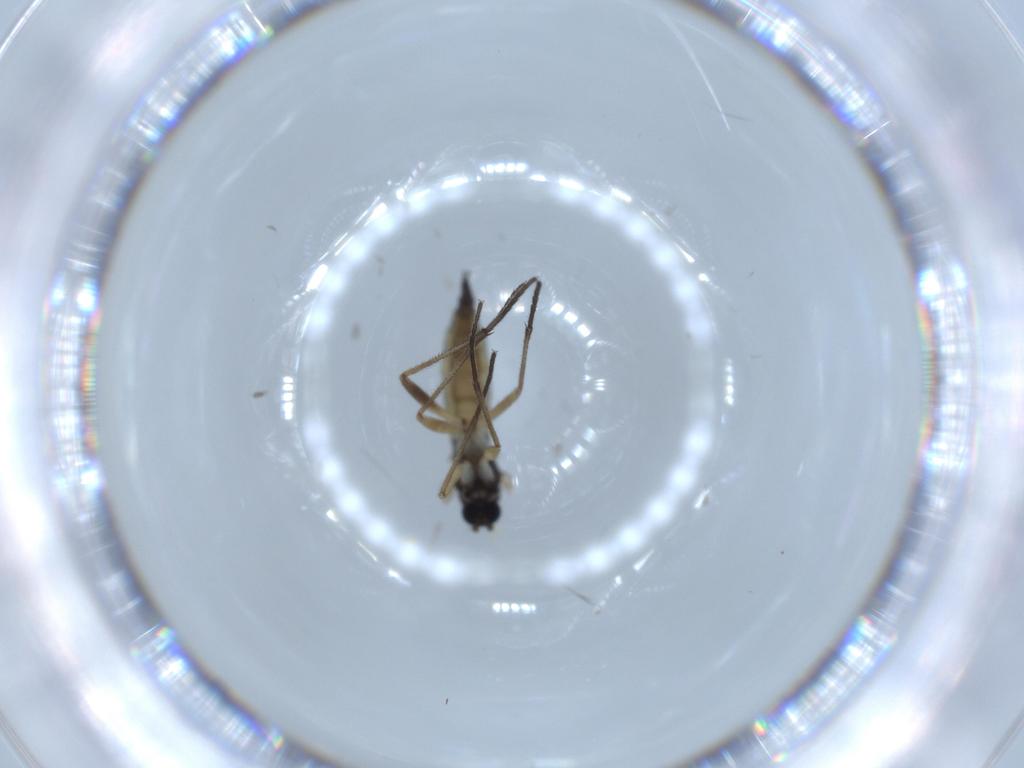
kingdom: Animalia
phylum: Arthropoda
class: Insecta
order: Diptera
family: Sciaridae
